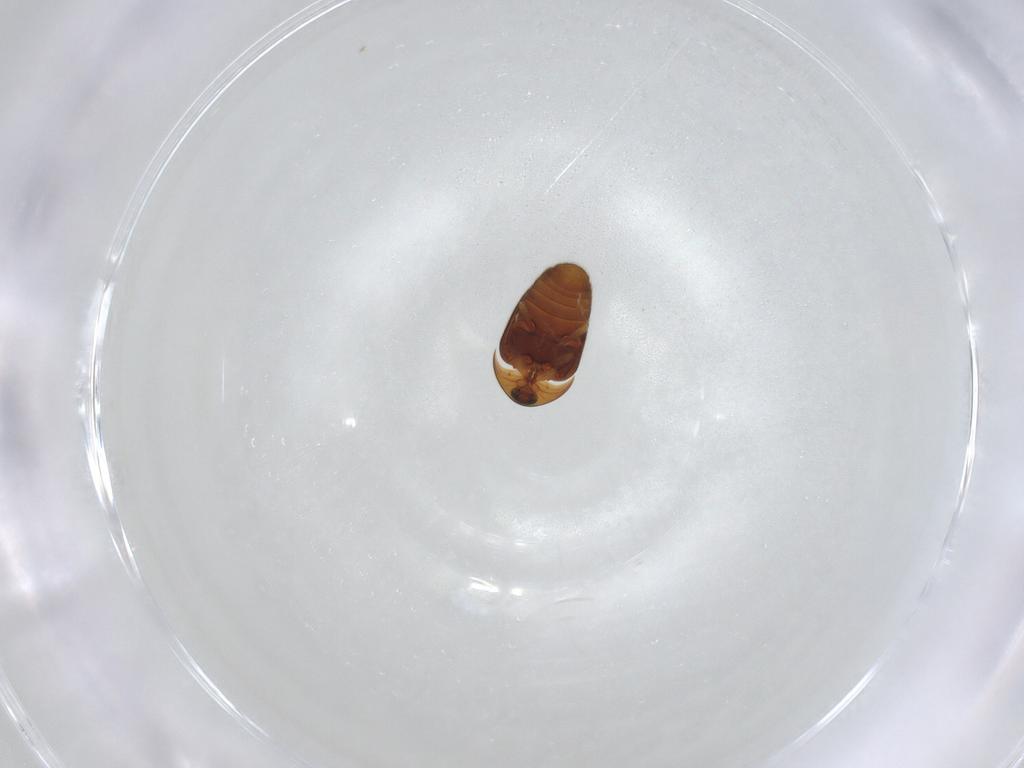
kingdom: Animalia
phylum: Arthropoda
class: Insecta
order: Coleoptera
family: Corylophidae
